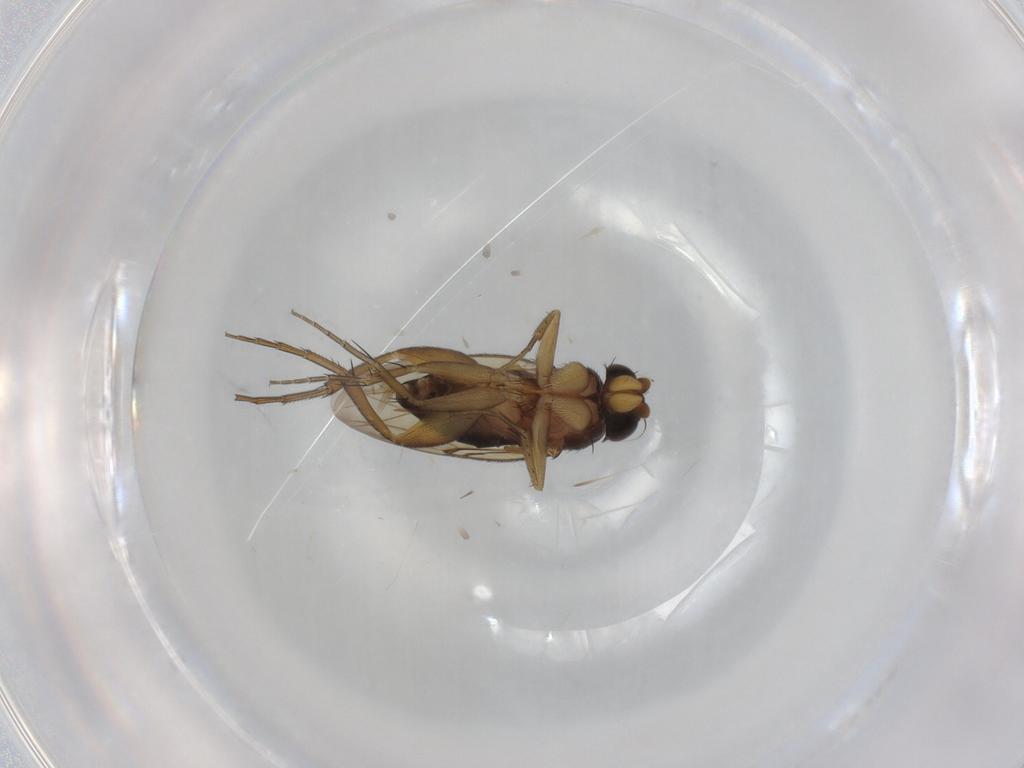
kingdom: Animalia
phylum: Arthropoda
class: Insecta
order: Diptera
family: Phoridae
